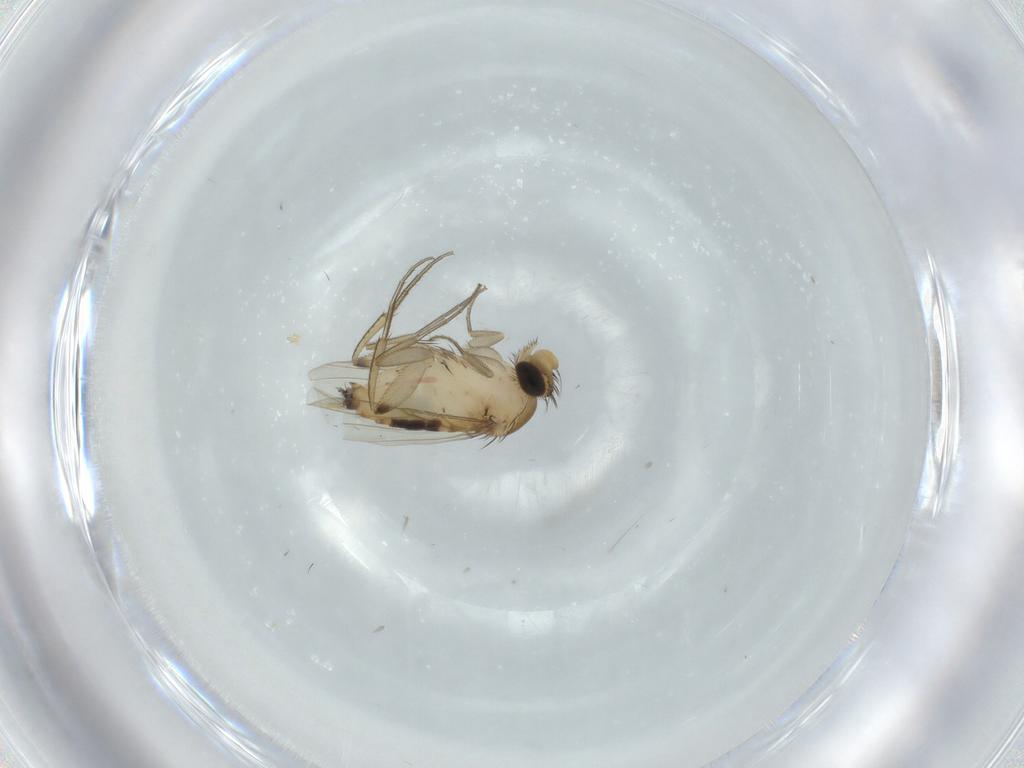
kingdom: Animalia
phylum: Arthropoda
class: Insecta
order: Diptera
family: Phoridae
